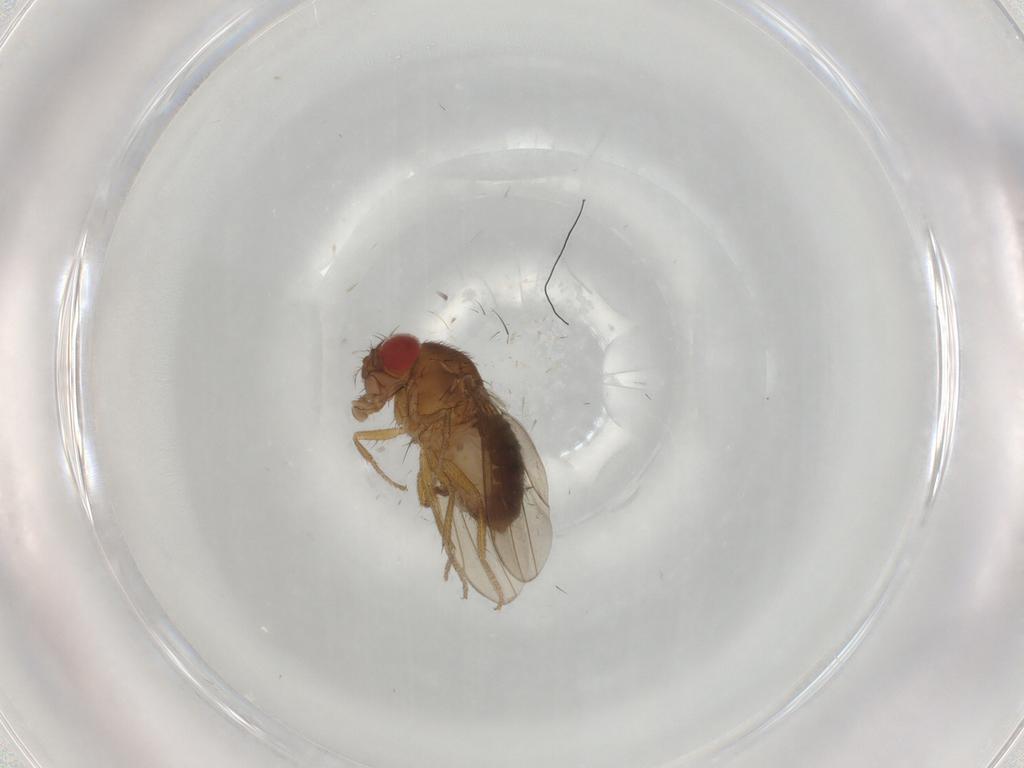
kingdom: Animalia
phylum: Arthropoda
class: Insecta
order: Diptera
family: Drosophilidae
